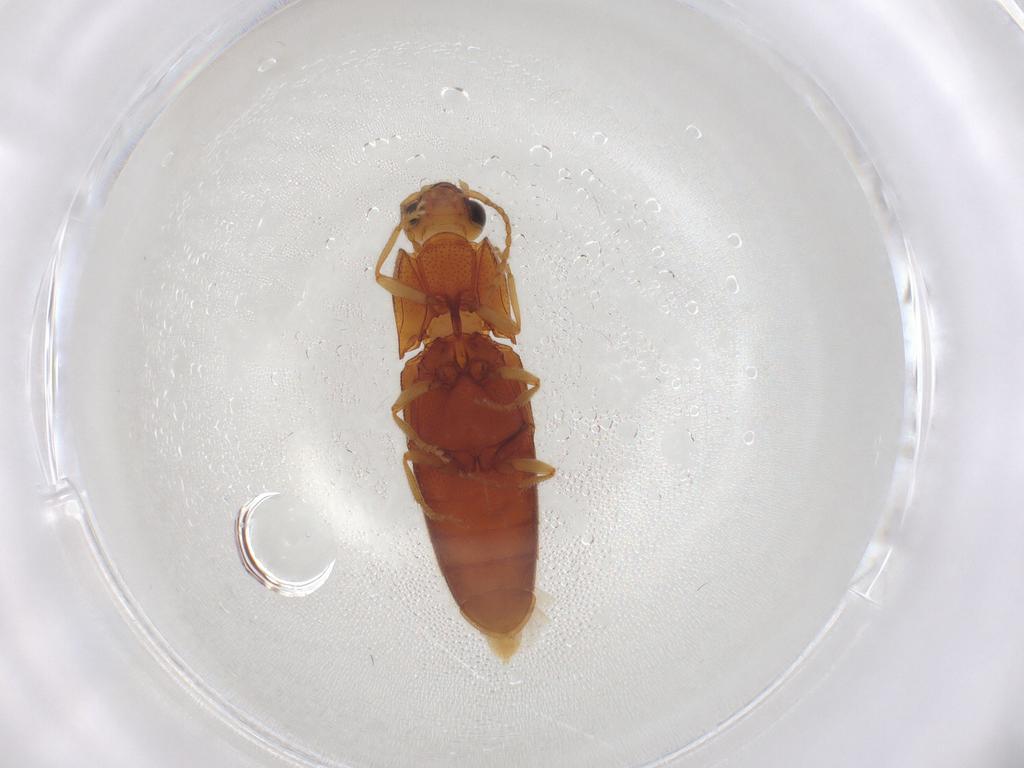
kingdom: Animalia
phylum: Arthropoda
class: Insecta
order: Coleoptera
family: Elateridae
